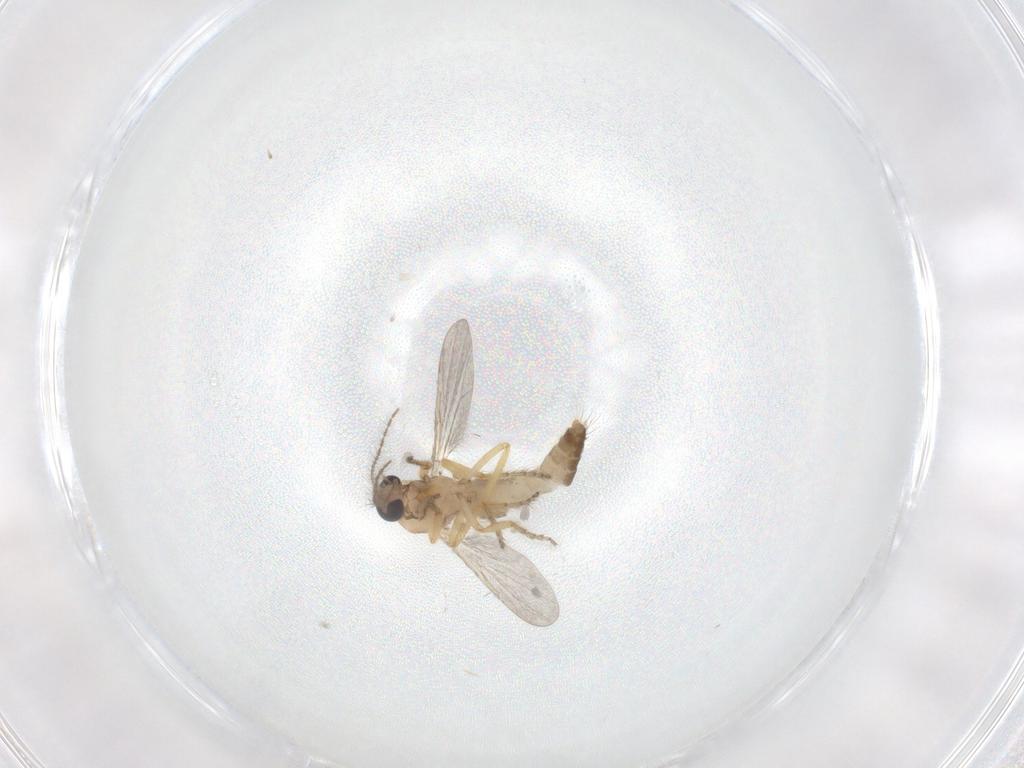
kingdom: Animalia
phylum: Arthropoda
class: Insecta
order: Diptera
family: Ceratopogonidae
